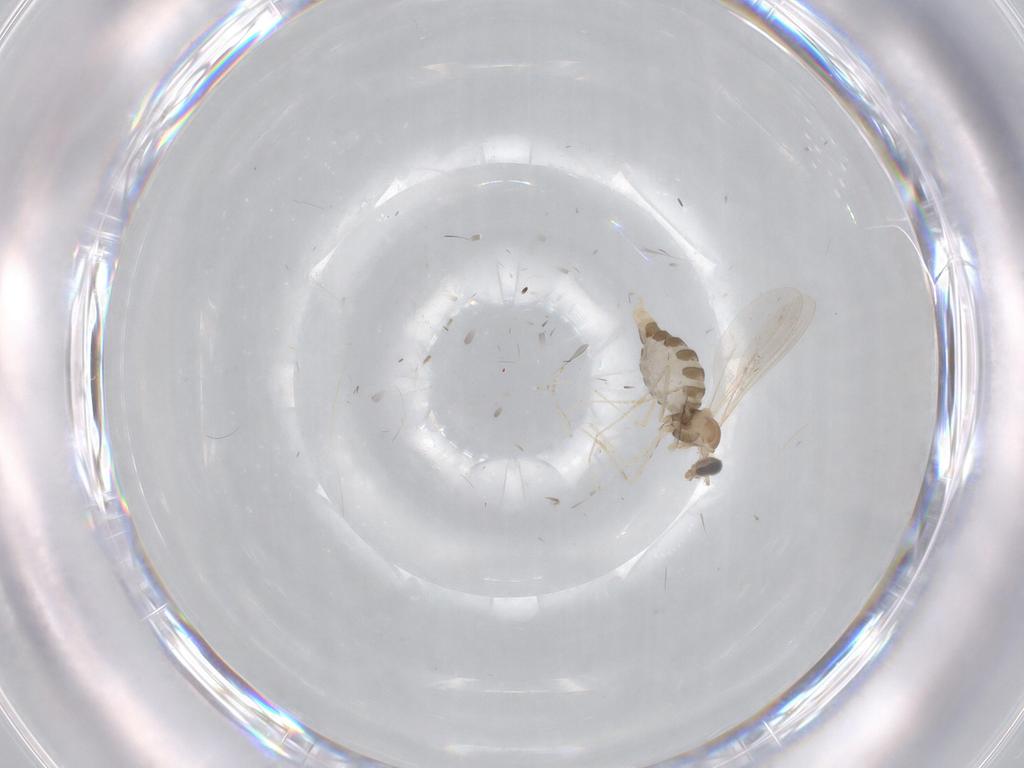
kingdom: Animalia
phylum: Arthropoda
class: Insecta
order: Diptera
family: Cecidomyiidae
